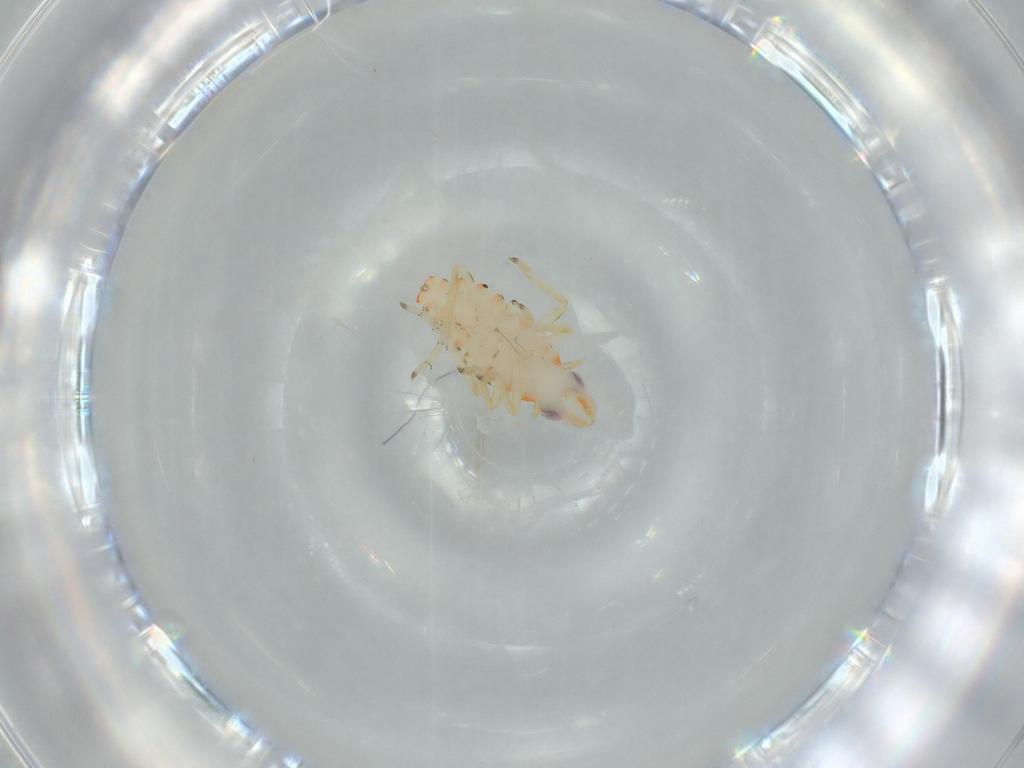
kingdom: Animalia
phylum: Arthropoda
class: Insecta
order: Hemiptera
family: Tropiduchidae
